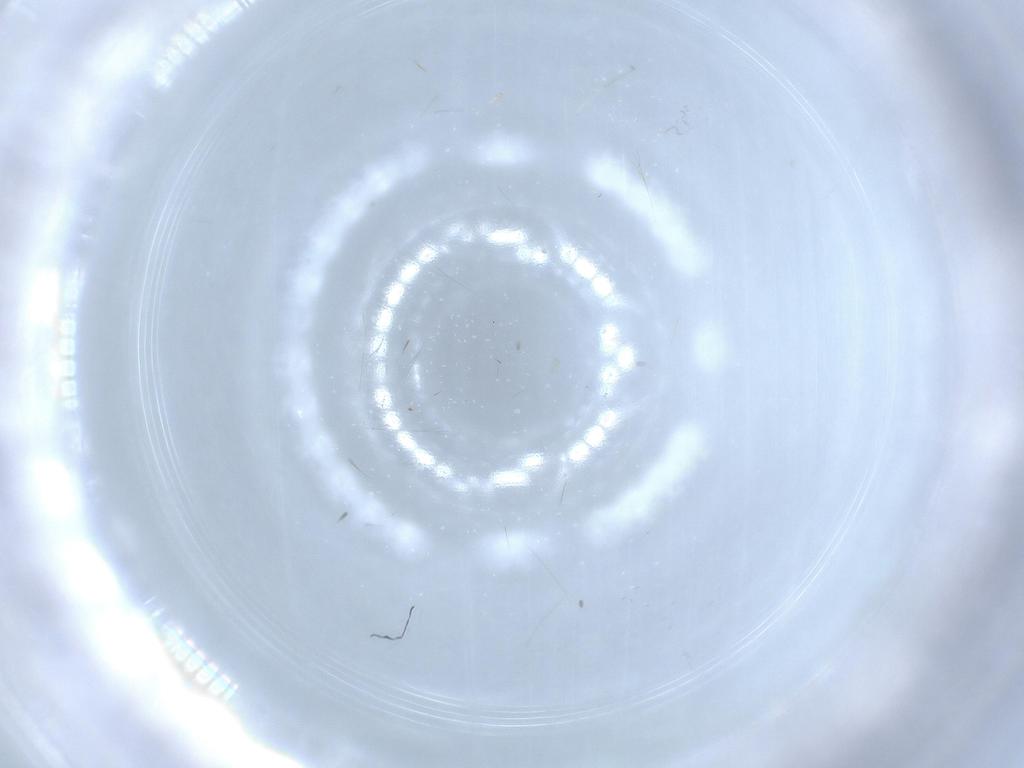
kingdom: Animalia
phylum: Arthropoda
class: Insecta
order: Diptera
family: Cecidomyiidae
